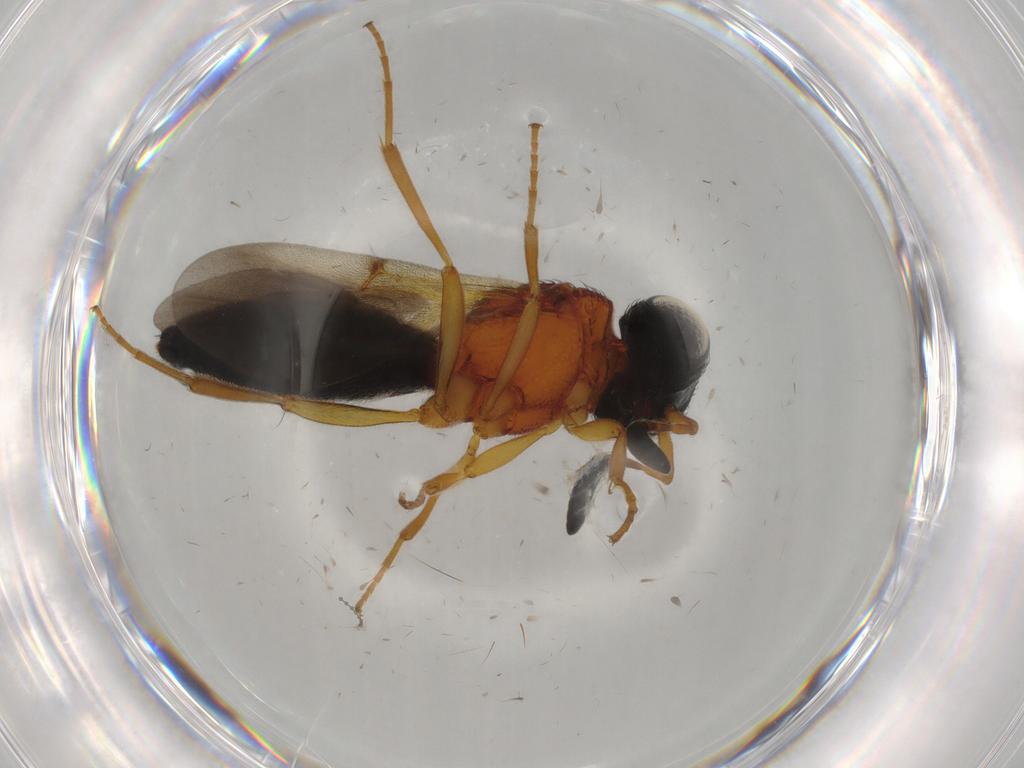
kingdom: Animalia
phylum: Arthropoda
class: Insecta
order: Hymenoptera
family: Scelionidae
